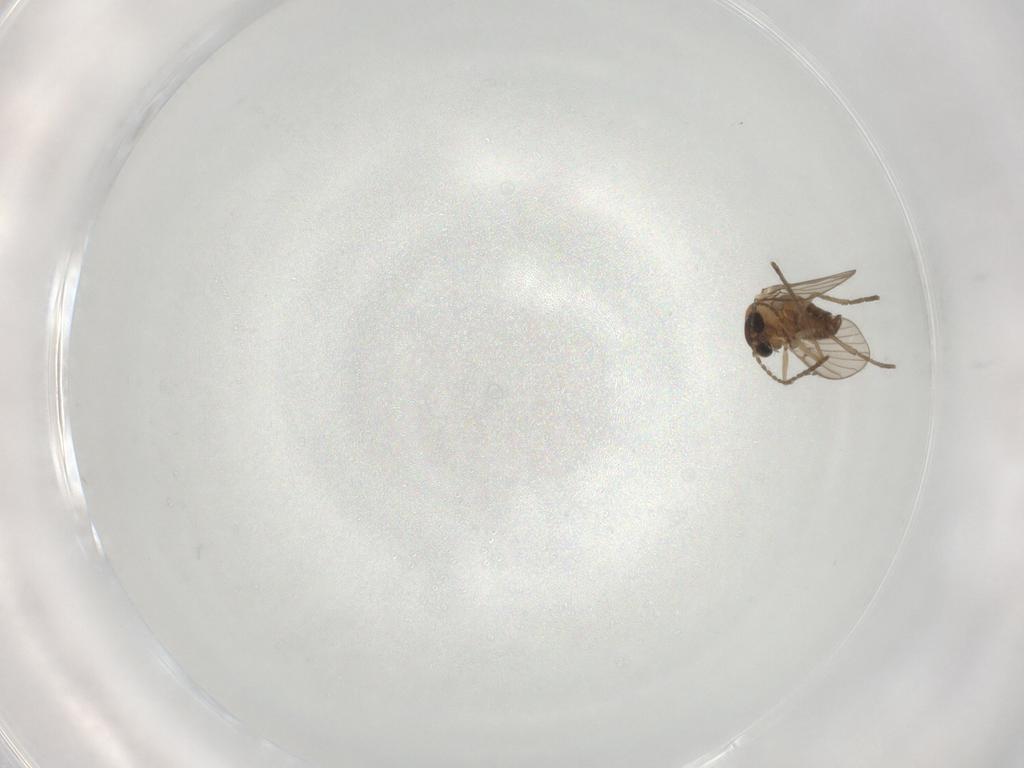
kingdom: Animalia
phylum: Arthropoda
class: Insecta
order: Diptera
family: Psychodidae
